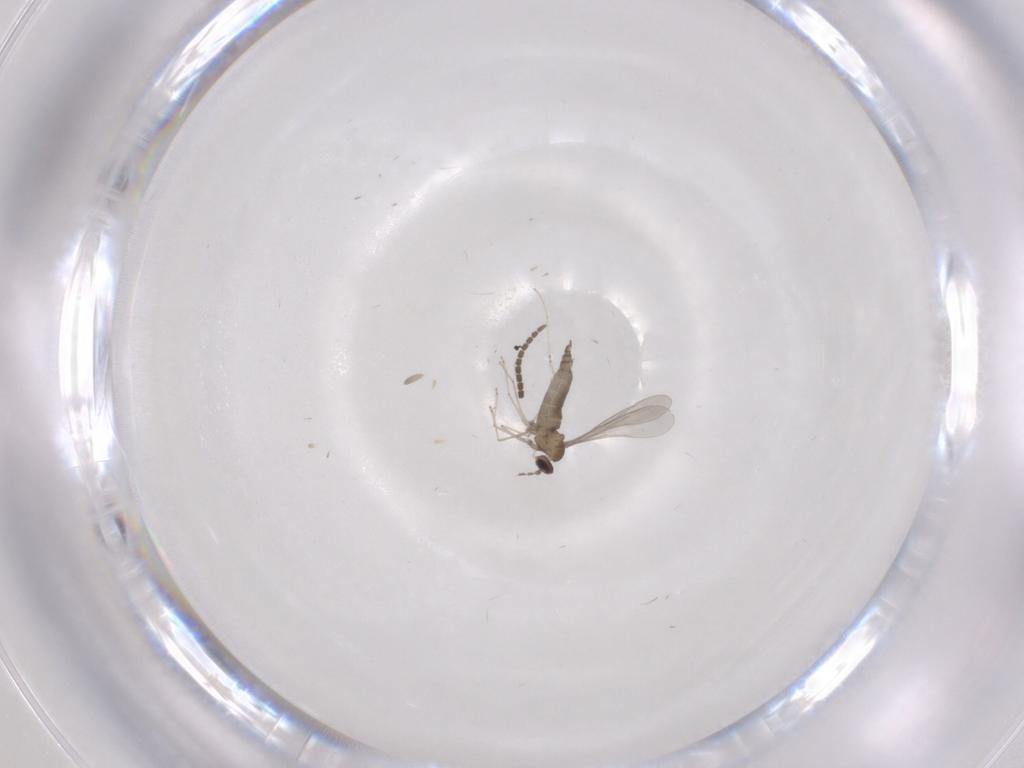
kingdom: Animalia
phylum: Arthropoda
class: Insecta
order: Diptera
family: Cecidomyiidae
